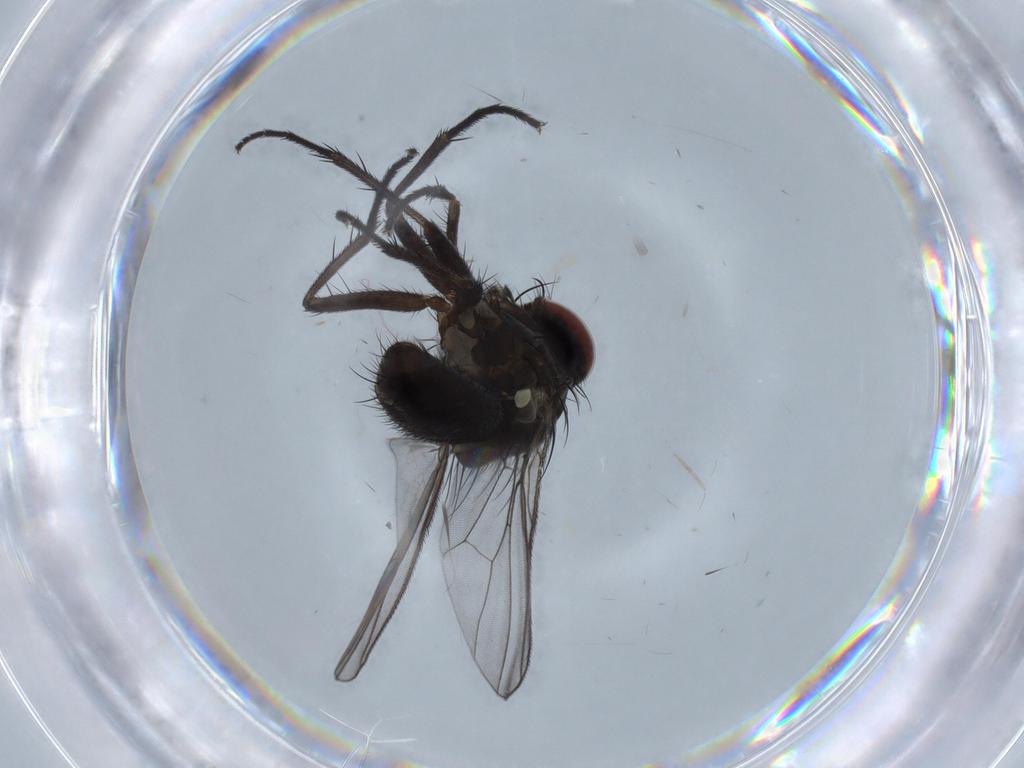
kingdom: Animalia
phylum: Arthropoda
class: Insecta
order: Diptera
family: Muscidae
